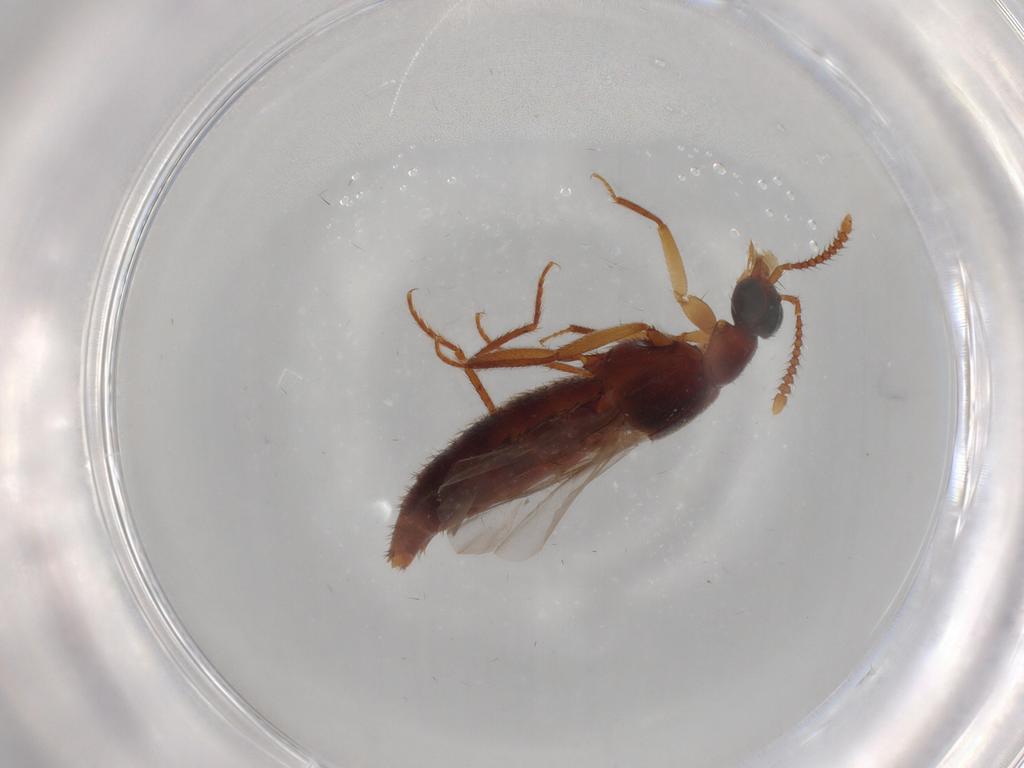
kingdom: Animalia
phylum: Arthropoda
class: Insecta
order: Coleoptera
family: Staphylinidae
